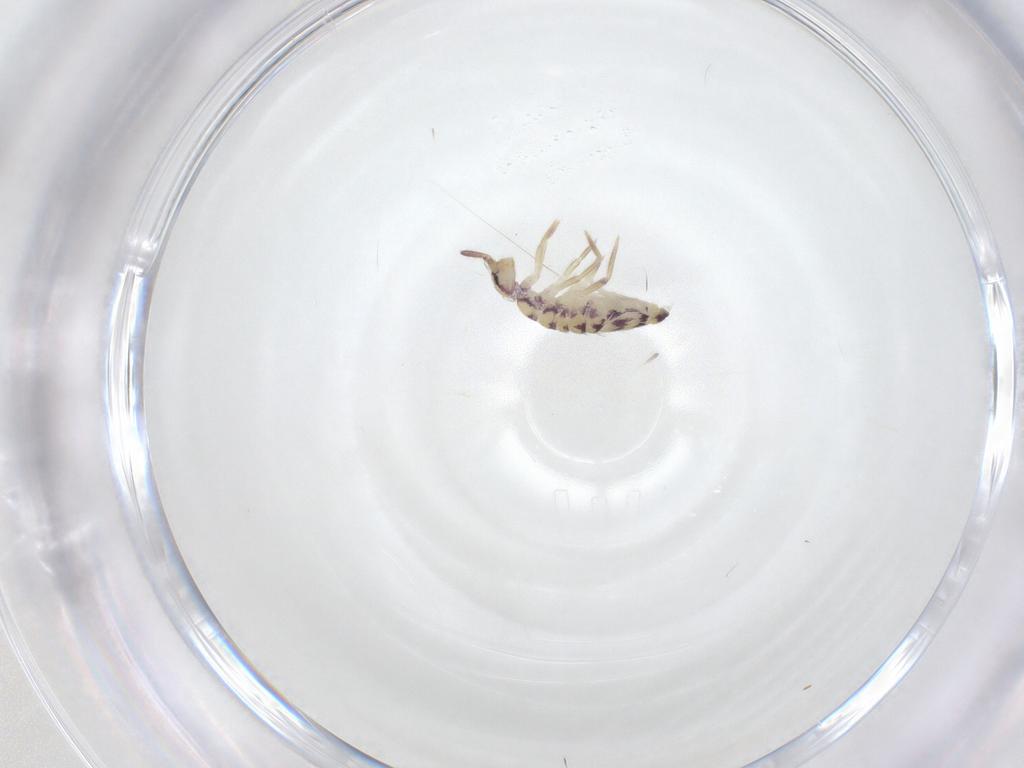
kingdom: Animalia
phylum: Arthropoda
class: Collembola
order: Entomobryomorpha
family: Entomobryidae
